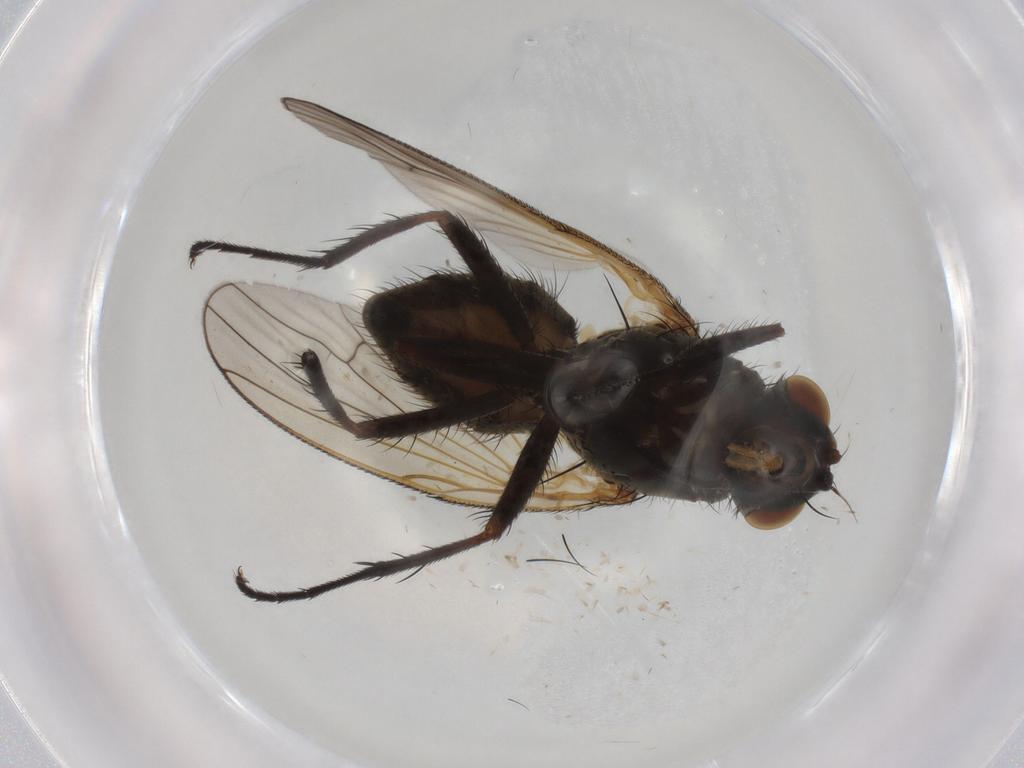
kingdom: Animalia
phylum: Arthropoda
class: Insecta
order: Diptera
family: Anthomyiidae
